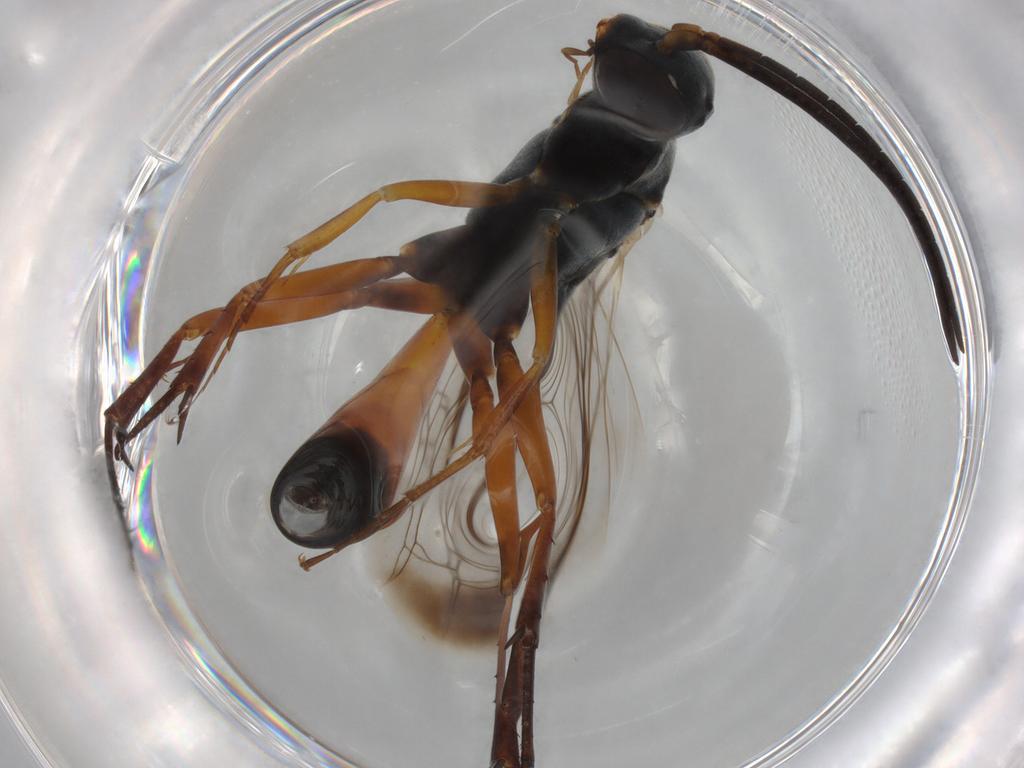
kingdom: Animalia
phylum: Arthropoda
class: Insecta
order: Hymenoptera
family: Pompilidae
